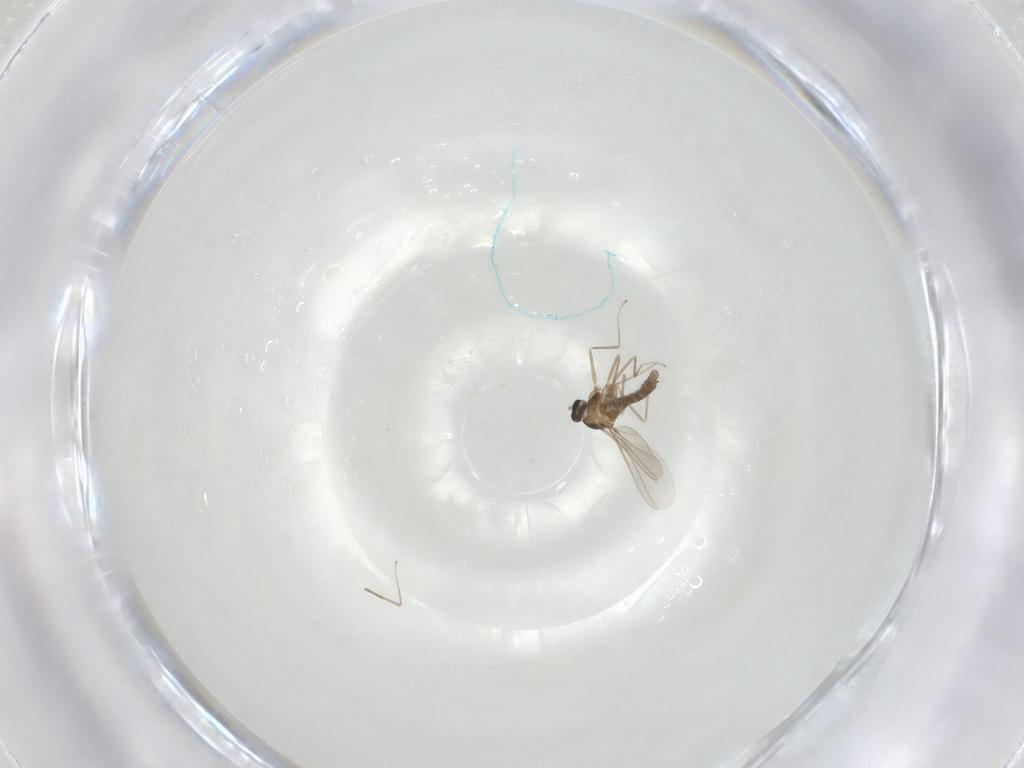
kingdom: Animalia
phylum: Arthropoda
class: Insecta
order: Diptera
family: Cecidomyiidae
